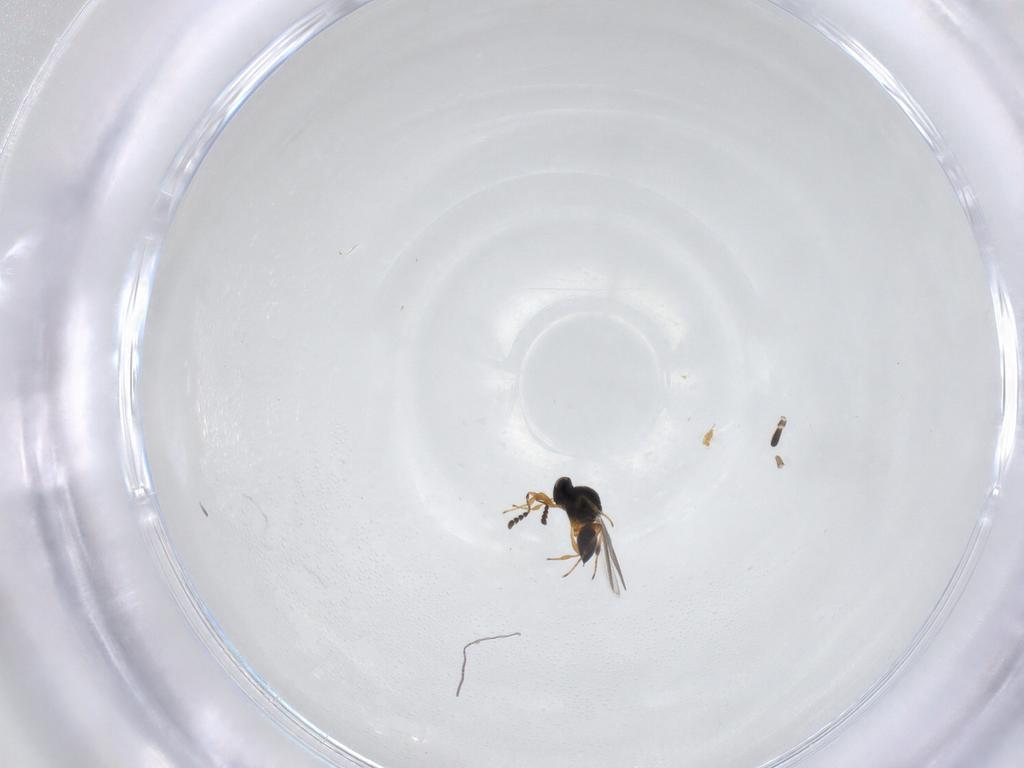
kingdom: Animalia
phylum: Arthropoda
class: Insecta
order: Hymenoptera
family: Platygastridae
